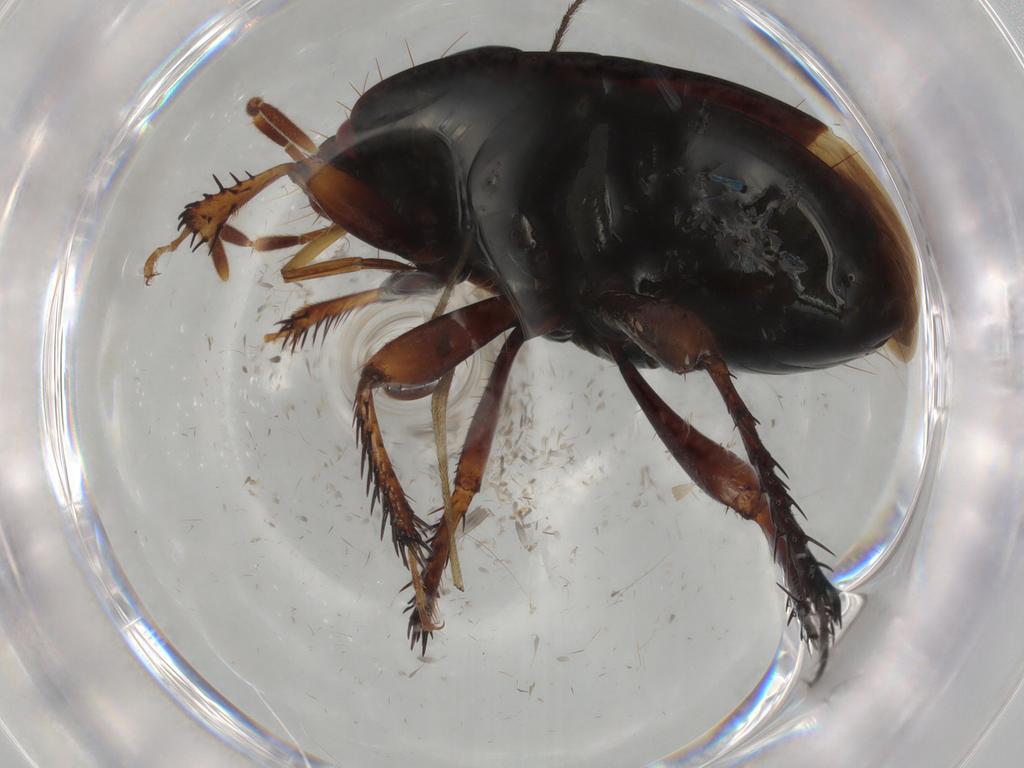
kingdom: Animalia
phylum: Arthropoda
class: Insecta
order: Hemiptera
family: Cydnidae
